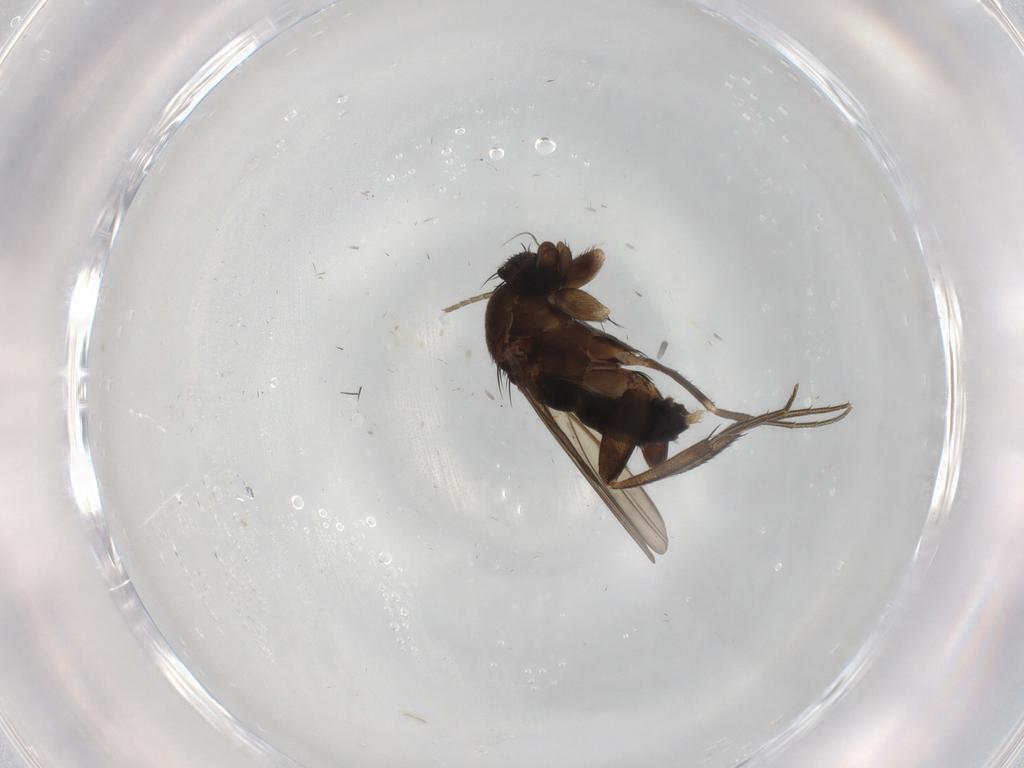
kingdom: Animalia
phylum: Arthropoda
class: Insecta
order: Diptera
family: Phoridae
